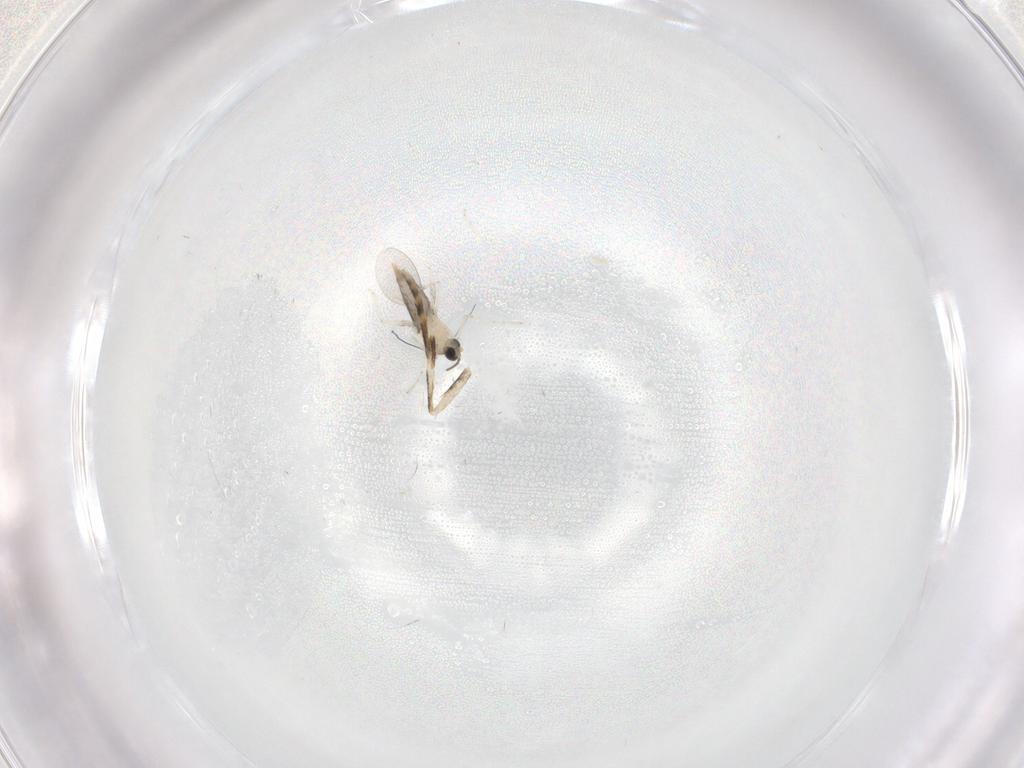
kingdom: Animalia
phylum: Arthropoda
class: Insecta
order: Diptera
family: Cecidomyiidae
